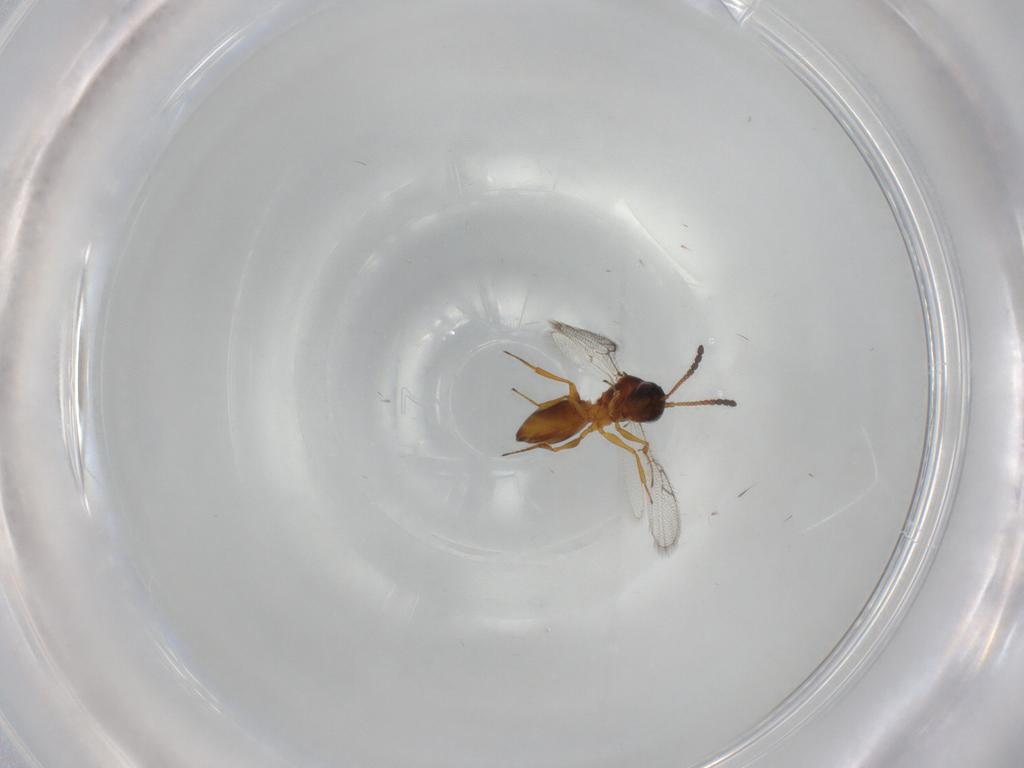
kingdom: Animalia
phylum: Arthropoda
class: Insecta
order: Hymenoptera
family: Figitidae
